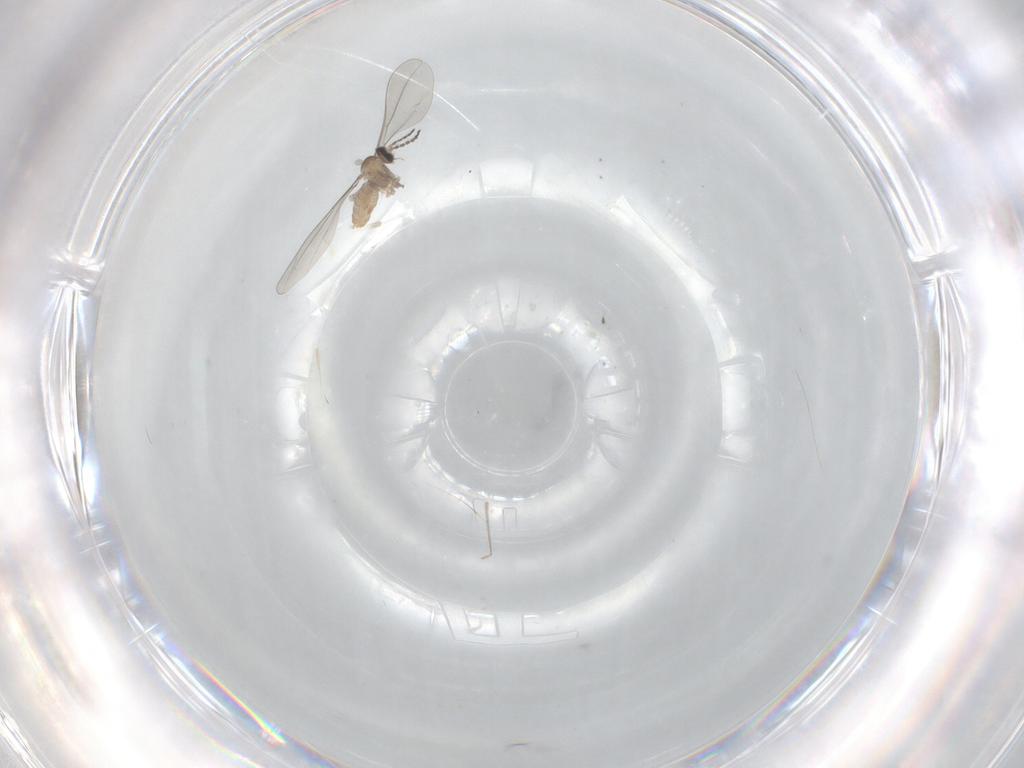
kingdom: Animalia
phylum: Arthropoda
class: Insecta
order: Diptera
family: Cecidomyiidae
